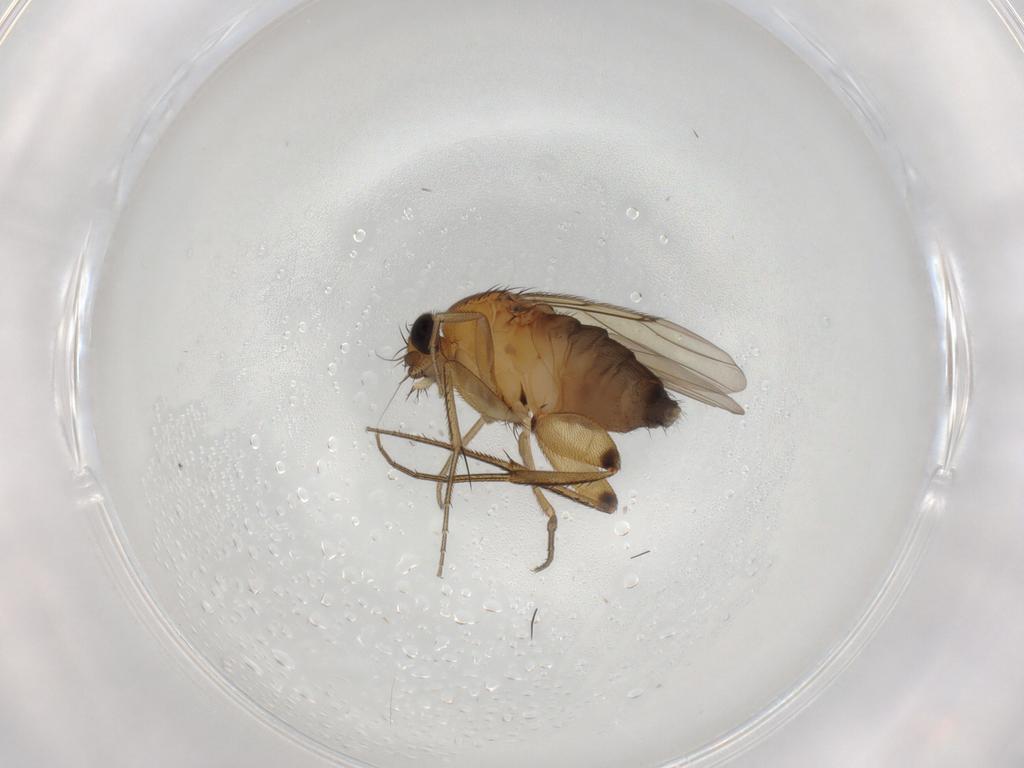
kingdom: Animalia
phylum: Arthropoda
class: Insecta
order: Diptera
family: Phoridae
